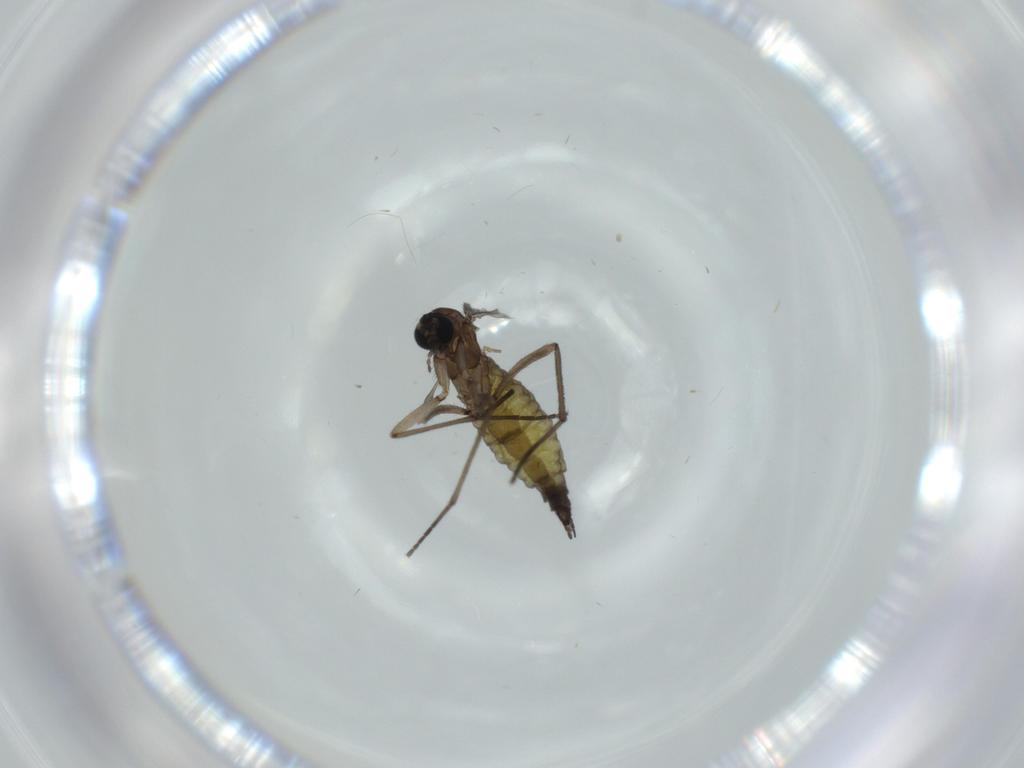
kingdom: Animalia
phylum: Arthropoda
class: Insecta
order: Diptera
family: Sciaridae
